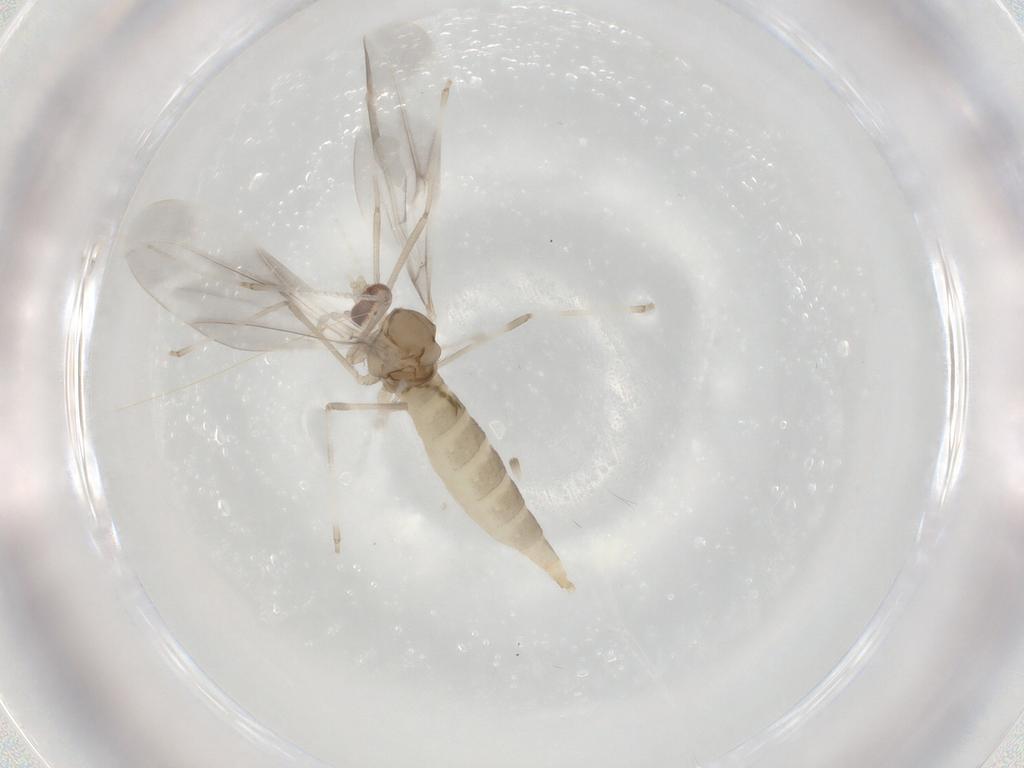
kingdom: Animalia
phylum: Arthropoda
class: Insecta
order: Diptera
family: Cecidomyiidae
